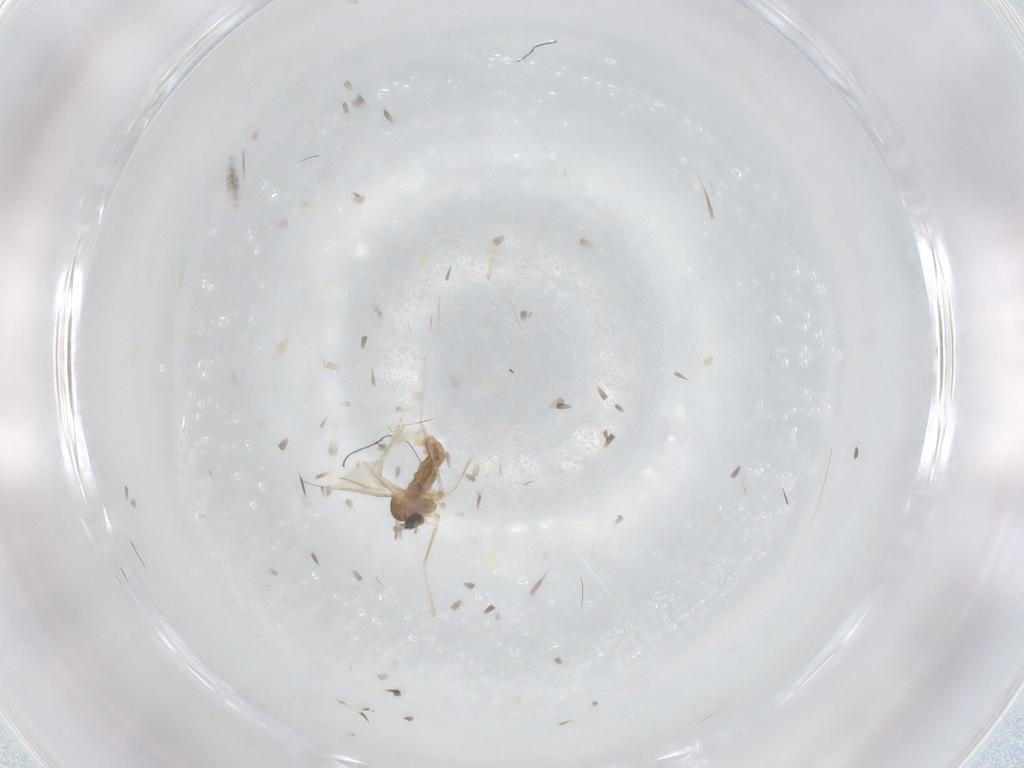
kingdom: Animalia
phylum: Arthropoda
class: Insecta
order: Diptera
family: Cecidomyiidae
